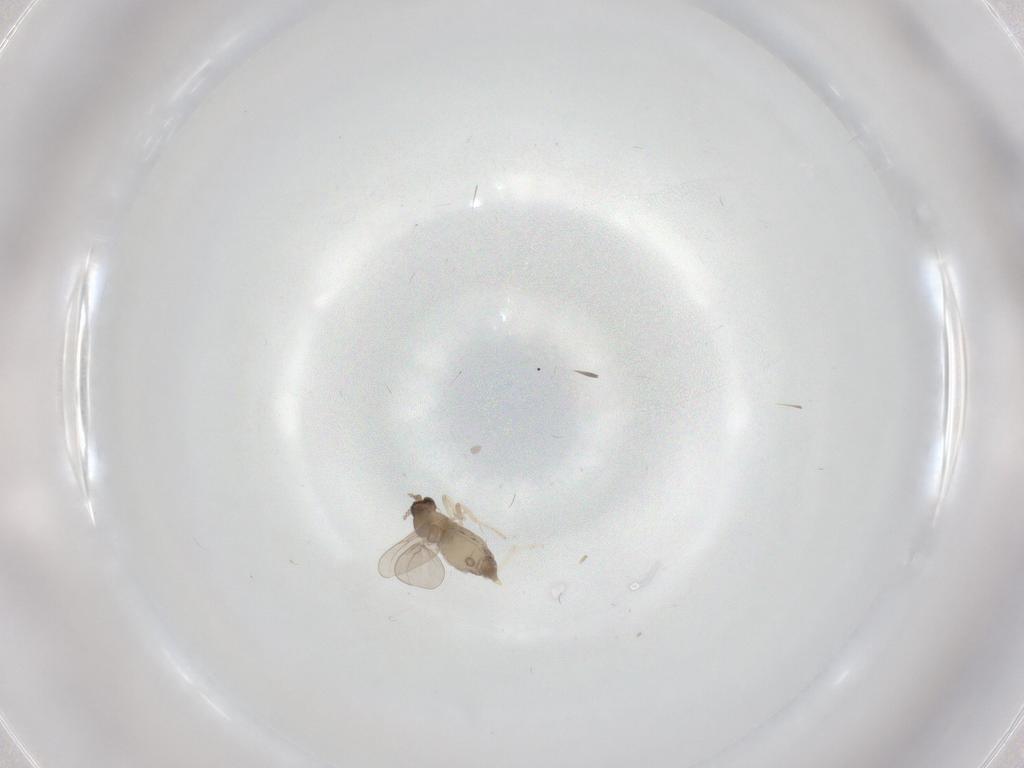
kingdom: Animalia
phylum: Arthropoda
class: Insecta
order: Diptera
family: Cecidomyiidae
